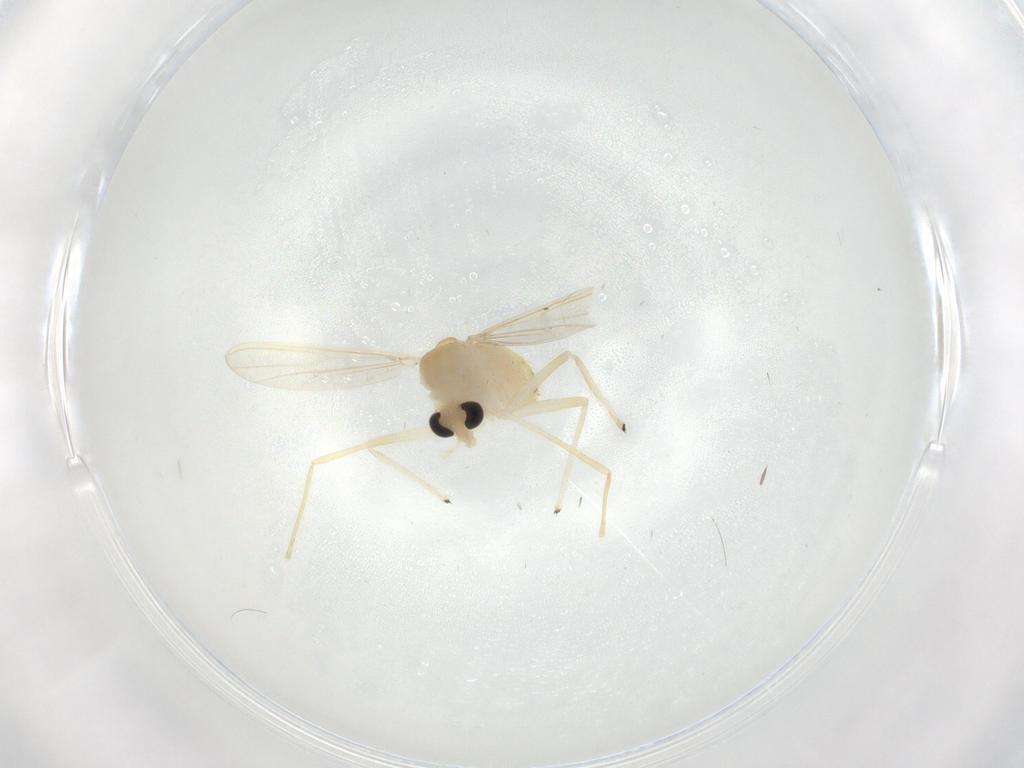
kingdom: Animalia
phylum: Arthropoda
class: Insecta
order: Diptera
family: Chironomidae
